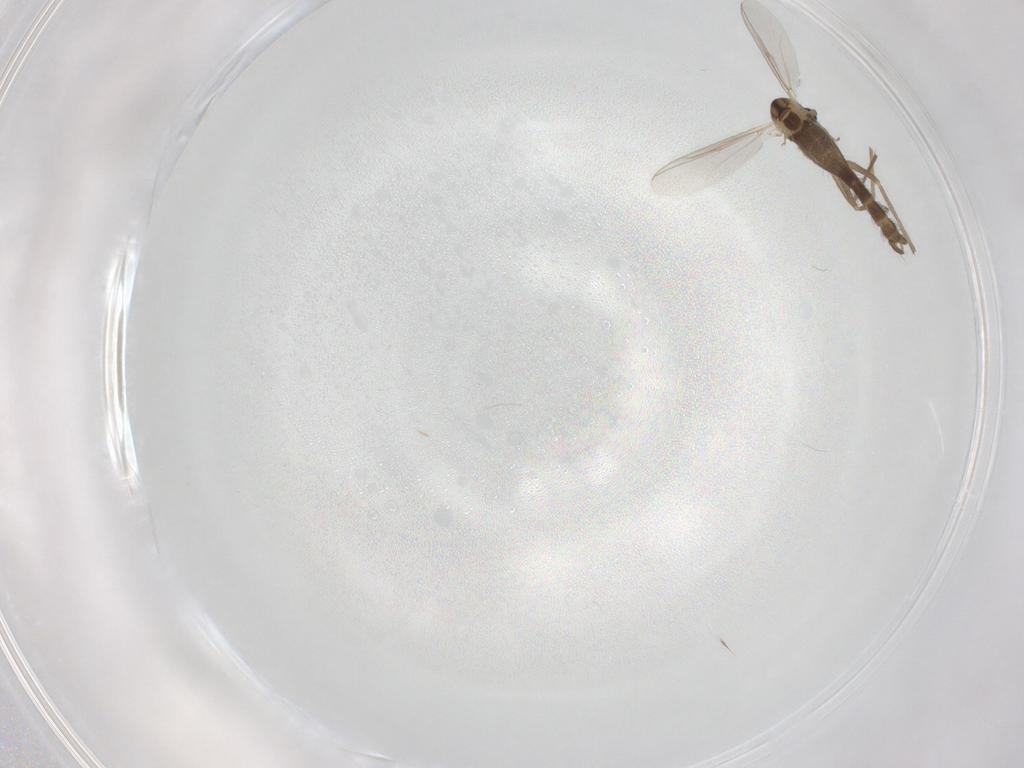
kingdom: Animalia
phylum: Arthropoda
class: Insecta
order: Diptera
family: Chironomidae
